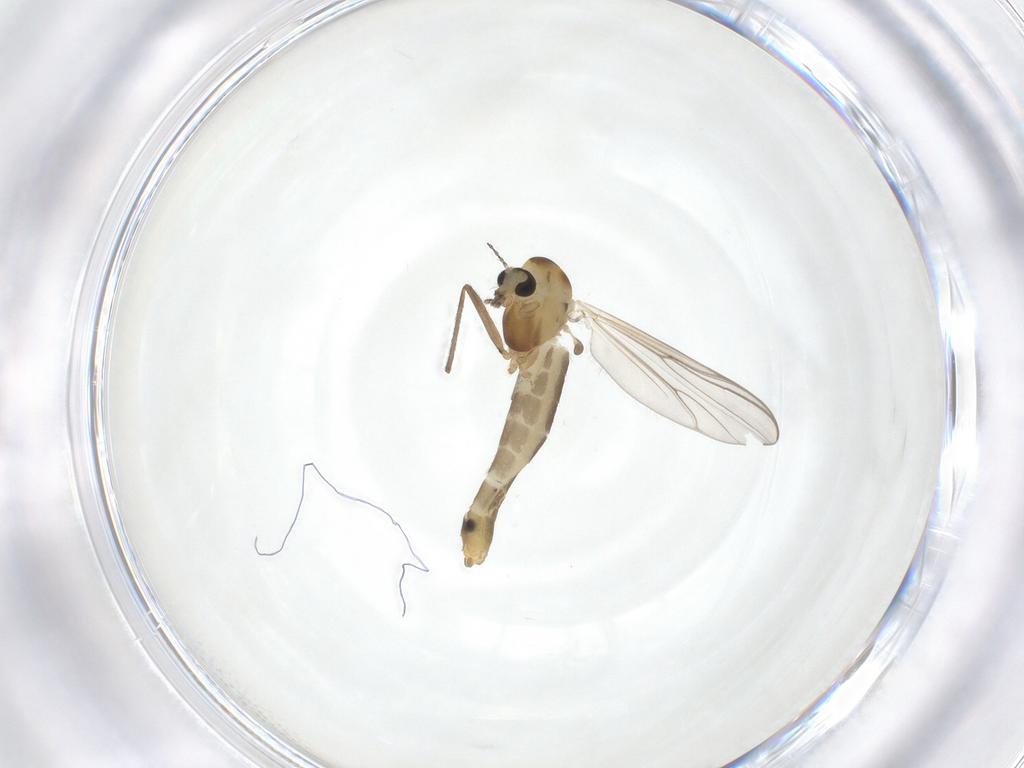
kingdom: Animalia
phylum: Arthropoda
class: Insecta
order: Diptera
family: Chironomidae
